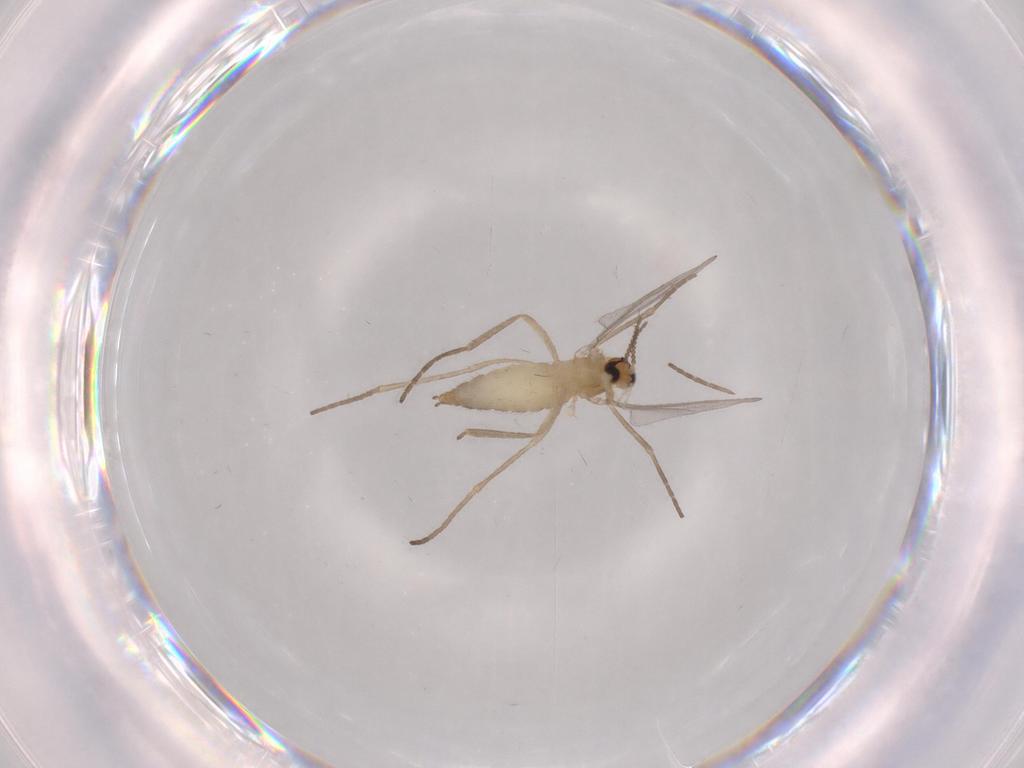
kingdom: Animalia
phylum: Arthropoda
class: Insecta
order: Diptera
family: Cecidomyiidae
